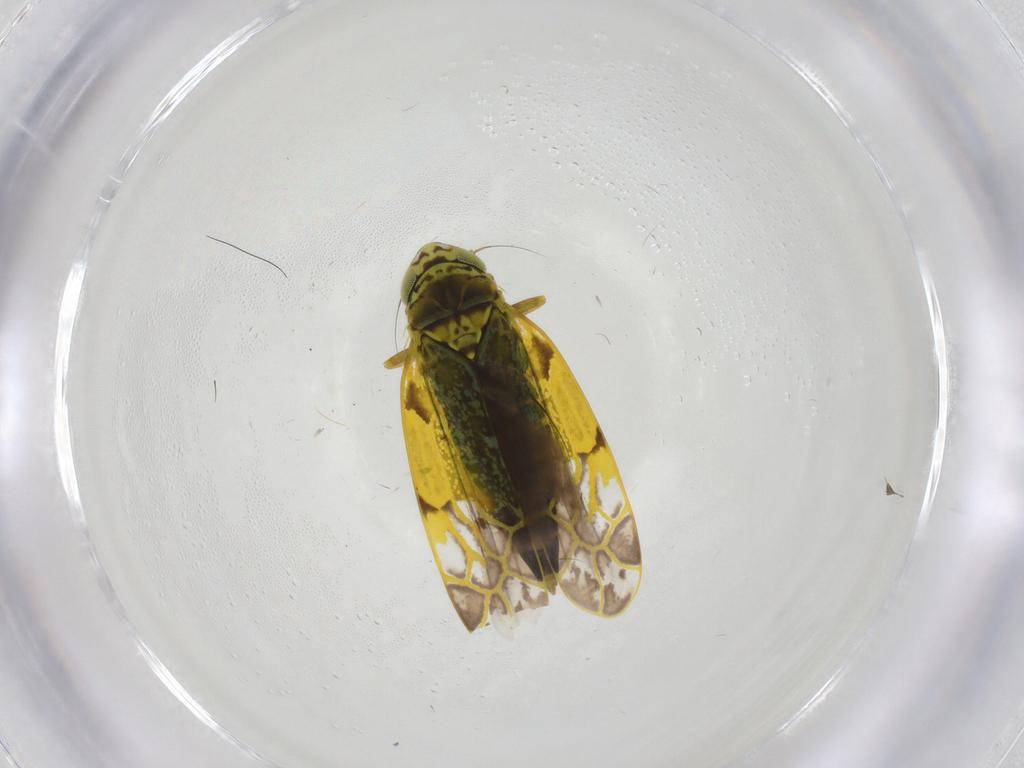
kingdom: Animalia
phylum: Arthropoda
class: Insecta
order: Hemiptera
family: Cicadellidae
